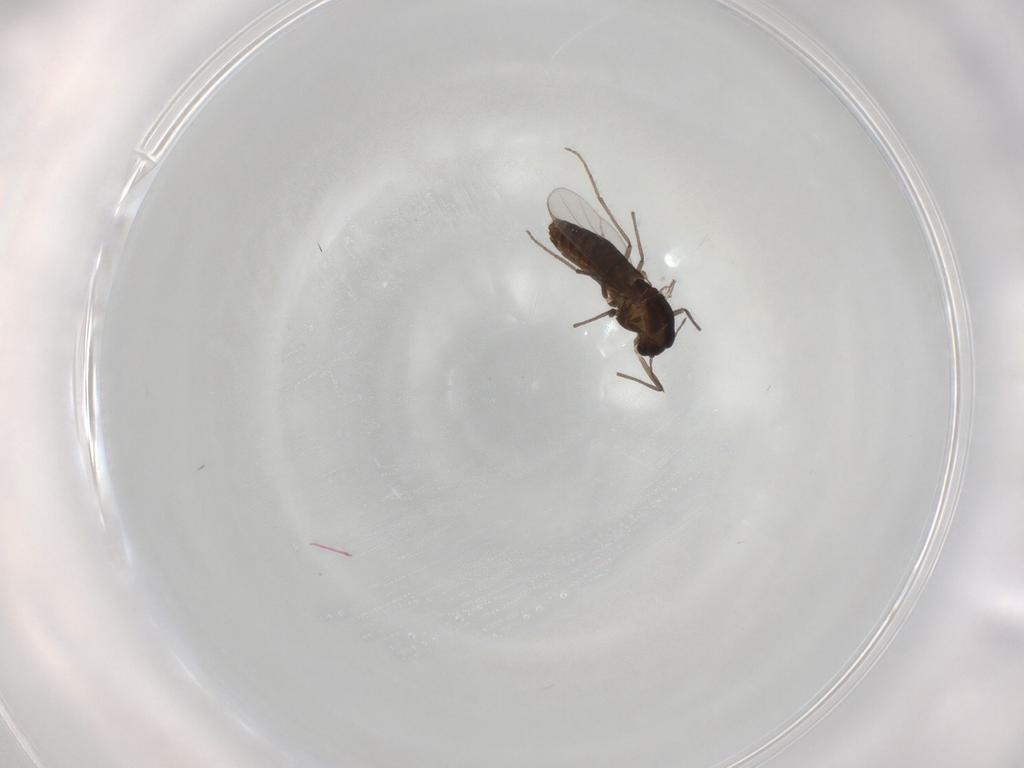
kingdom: Animalia
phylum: Arthropoda
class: Insecta
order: Diptera
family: Chironomidae
